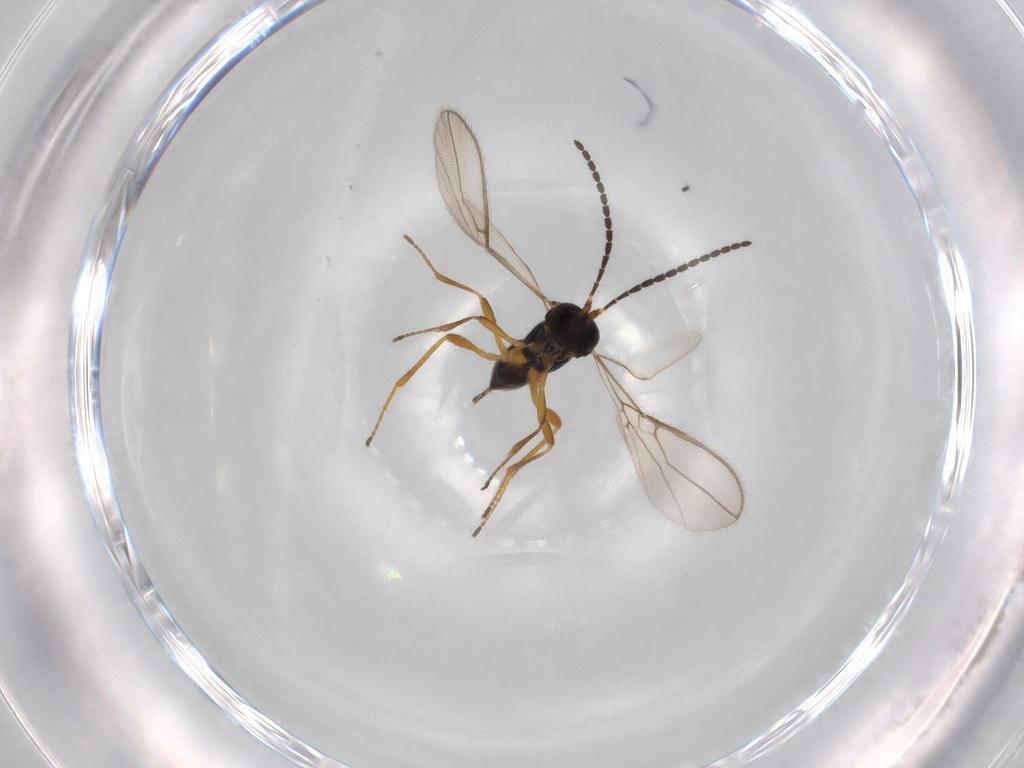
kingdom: Animalia
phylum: Arthropoda
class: Insecta
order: Hymenoptera
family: Braconidae
